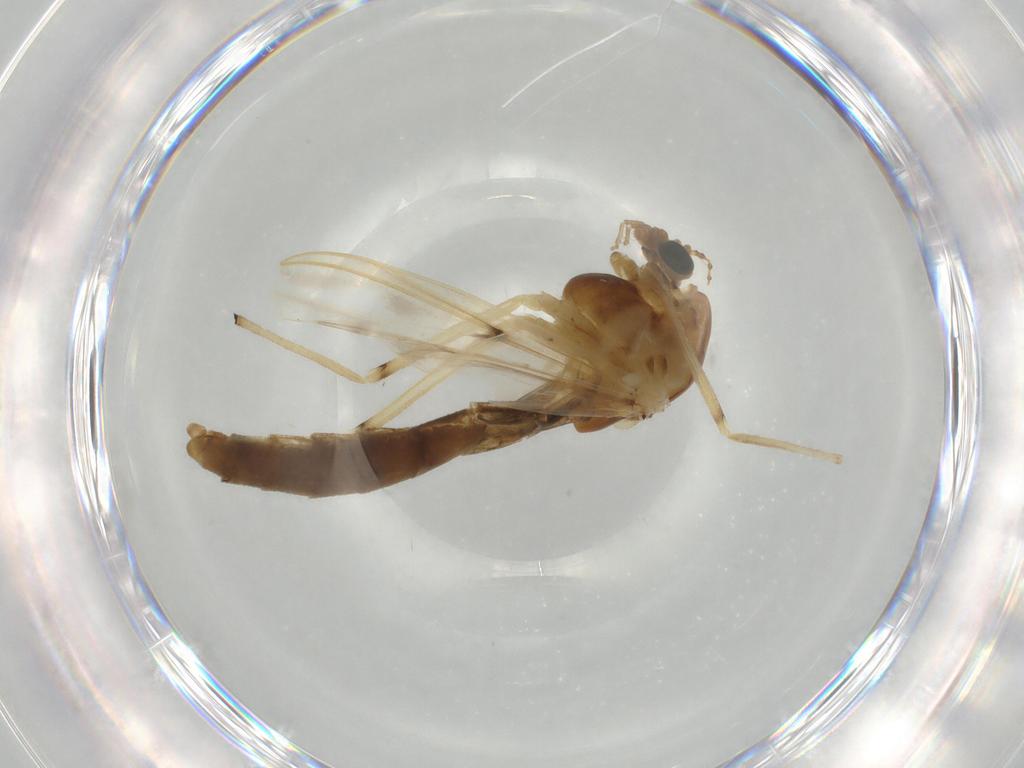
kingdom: Animalia
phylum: Arthropoda
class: Insecta
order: Diptera
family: Chironomidae
